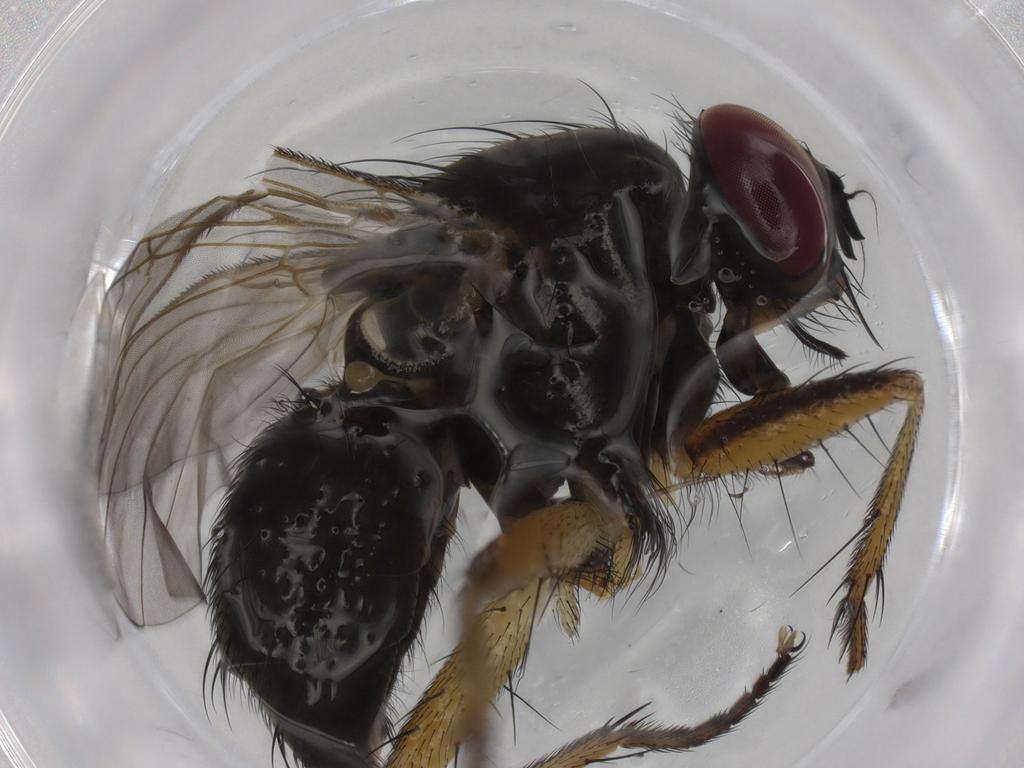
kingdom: Animalia
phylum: Arthropoda
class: Insecta
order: Diptera
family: Muscidae
